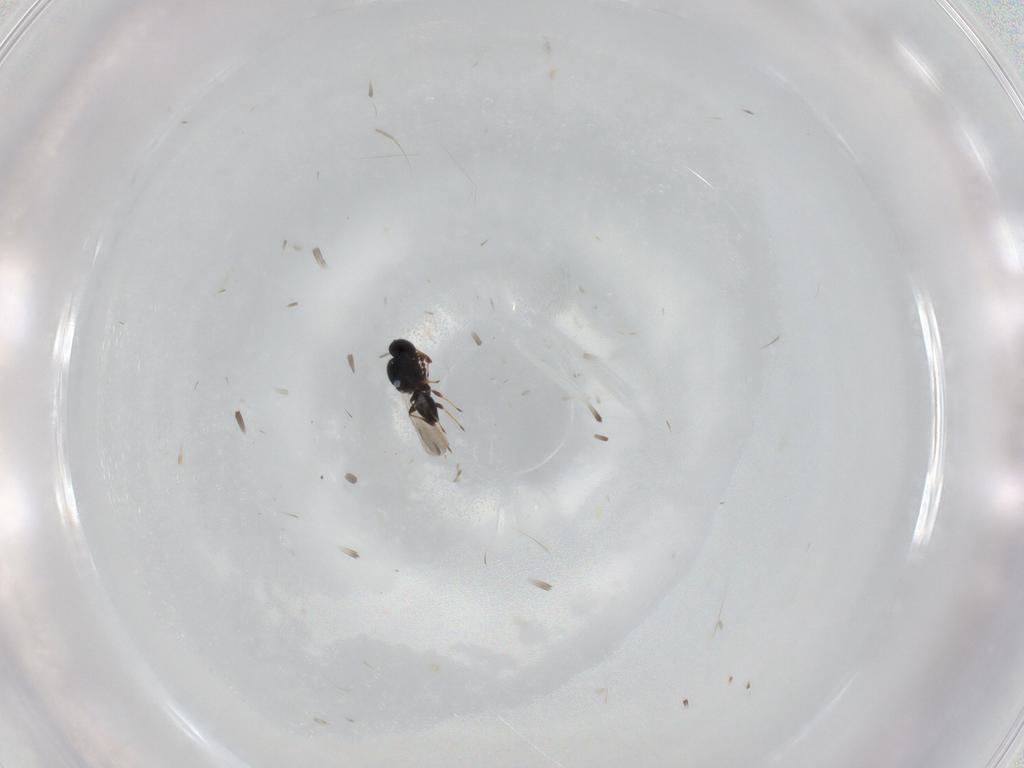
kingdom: Animalia
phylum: Arthropoda
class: Insecta
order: Hymenoptera
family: Platygastridae
